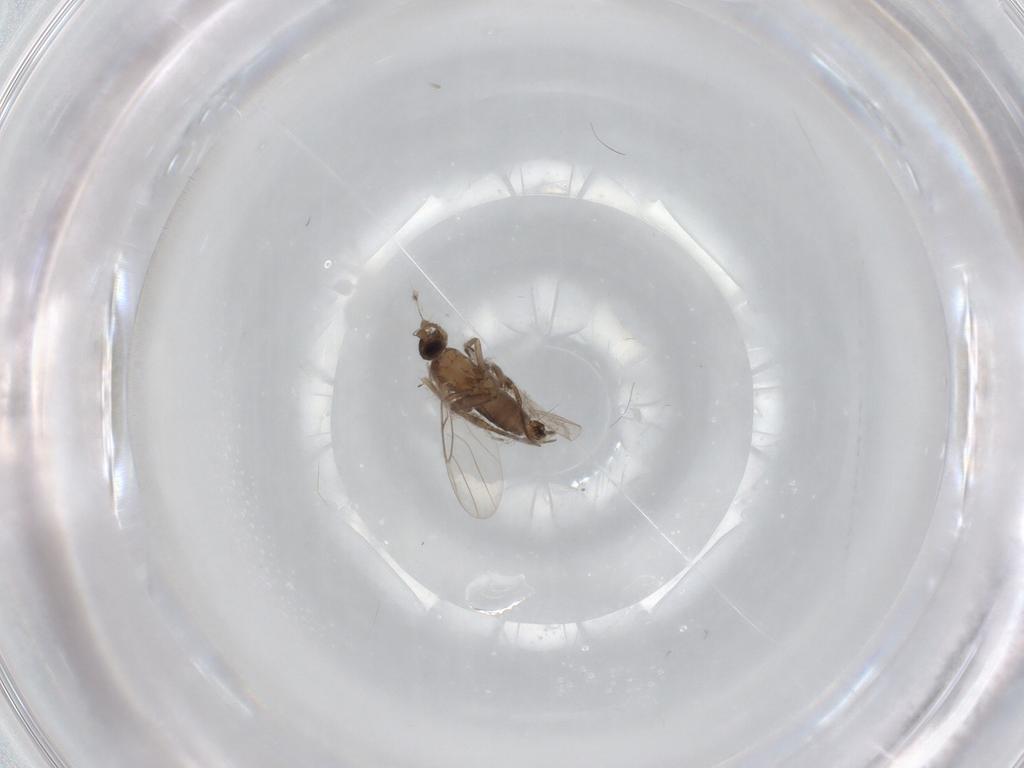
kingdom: Animalia
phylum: Arthropoda
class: Insecta
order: Diptera
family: Phoridae
